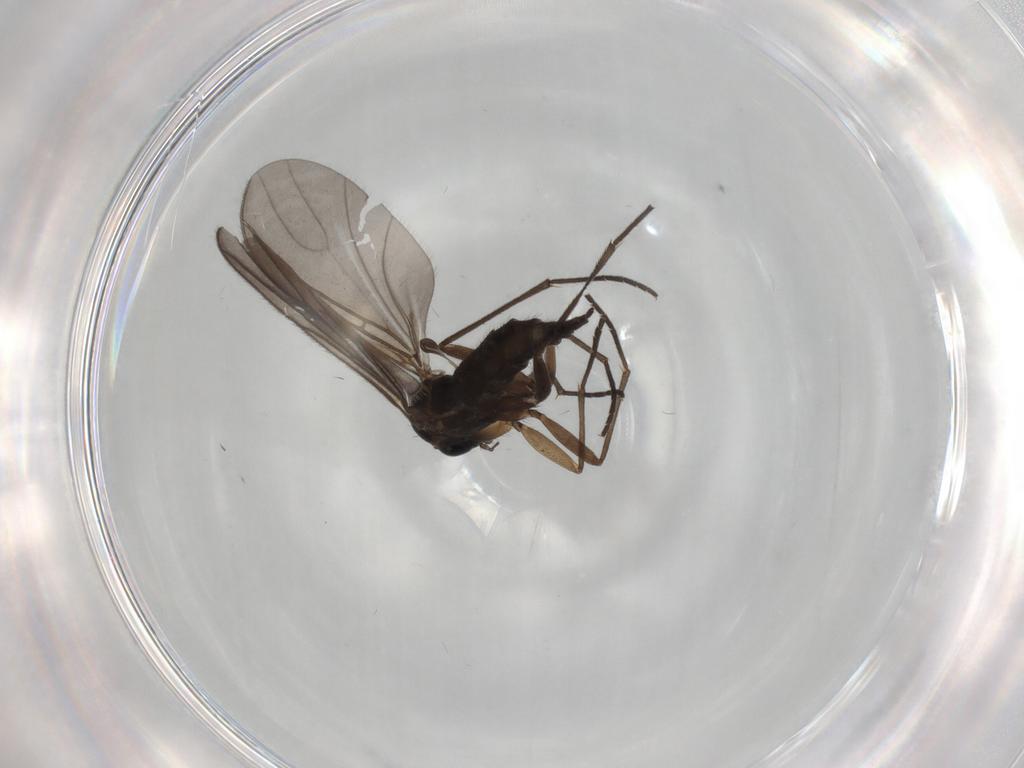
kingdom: Animalia
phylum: Arthropoda
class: Insecta
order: Diptera
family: Sciaridae
